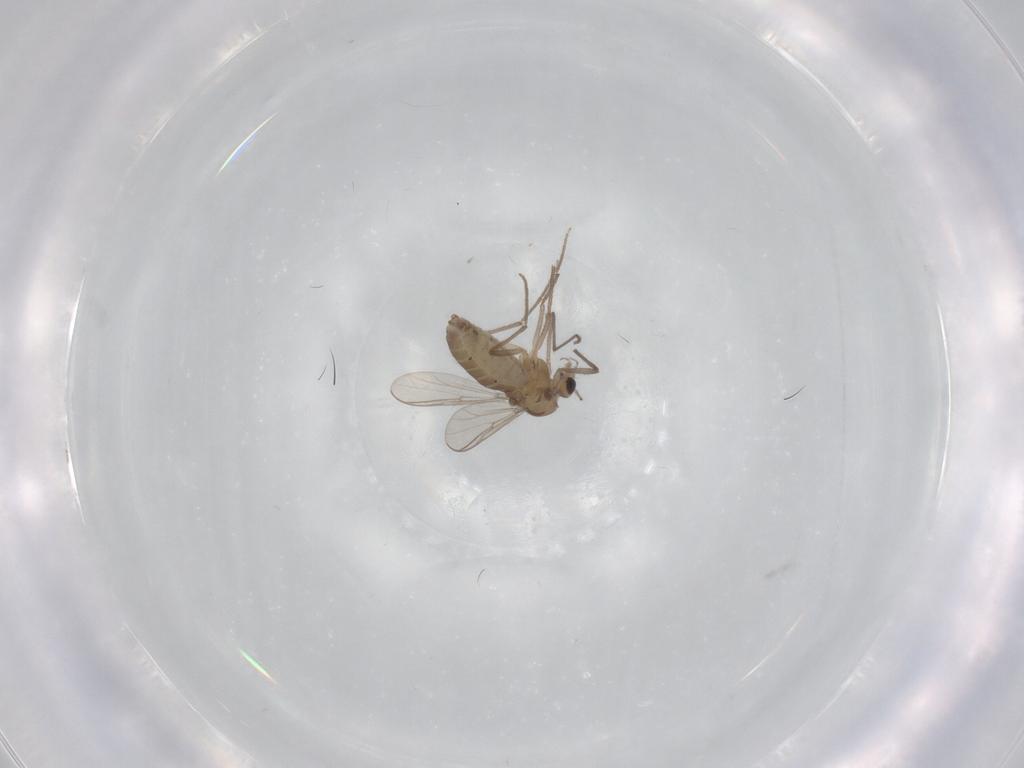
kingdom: Animalia
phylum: Arthropoda
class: Insecta
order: Diptera
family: Chironomidae
